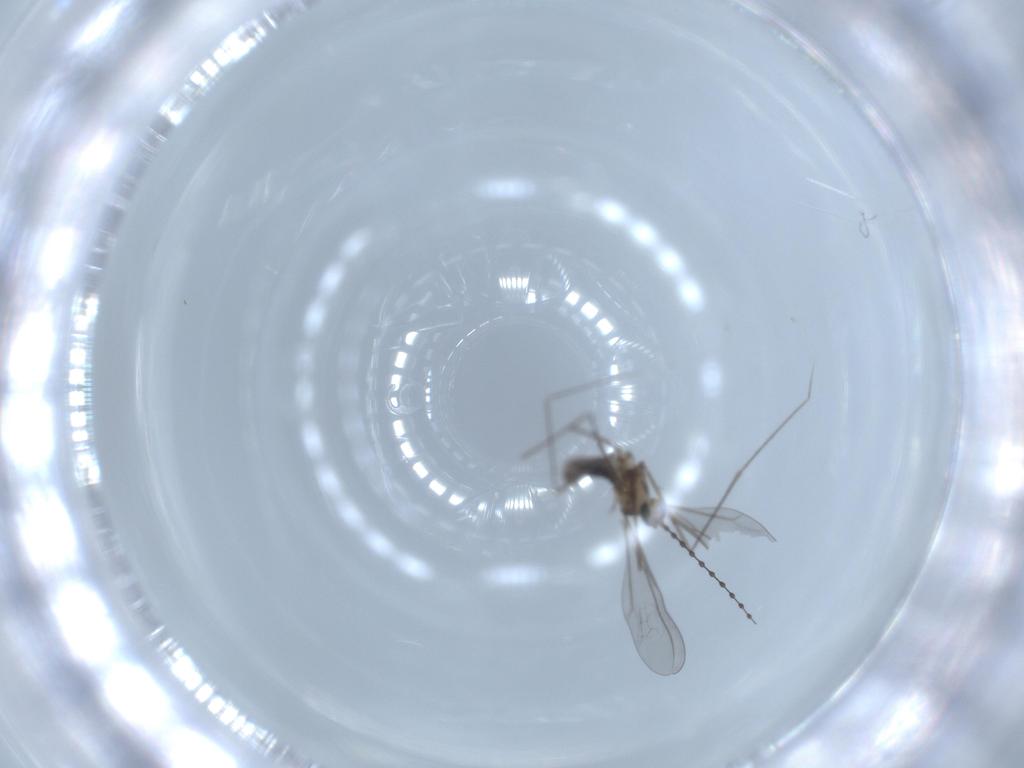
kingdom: Animalia
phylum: Arthropoda
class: Insecta
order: Diptera
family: Cecidomyiidae
